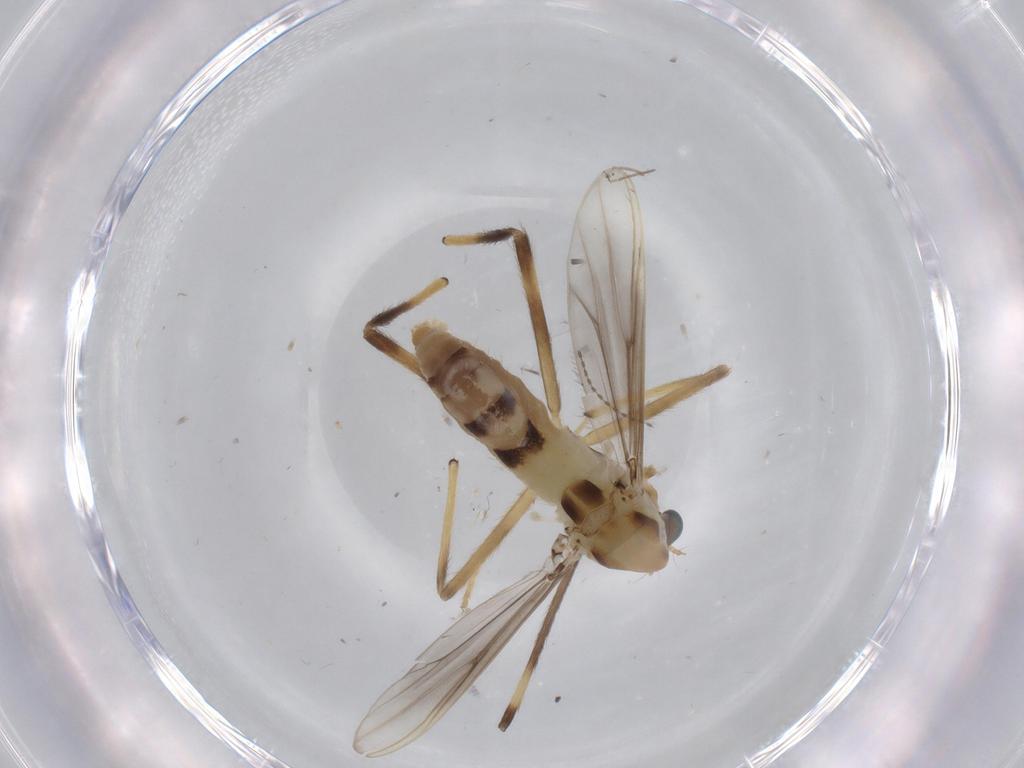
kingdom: Animalia
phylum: Arthropoda
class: Insecta
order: Diptera
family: Chironomidae
